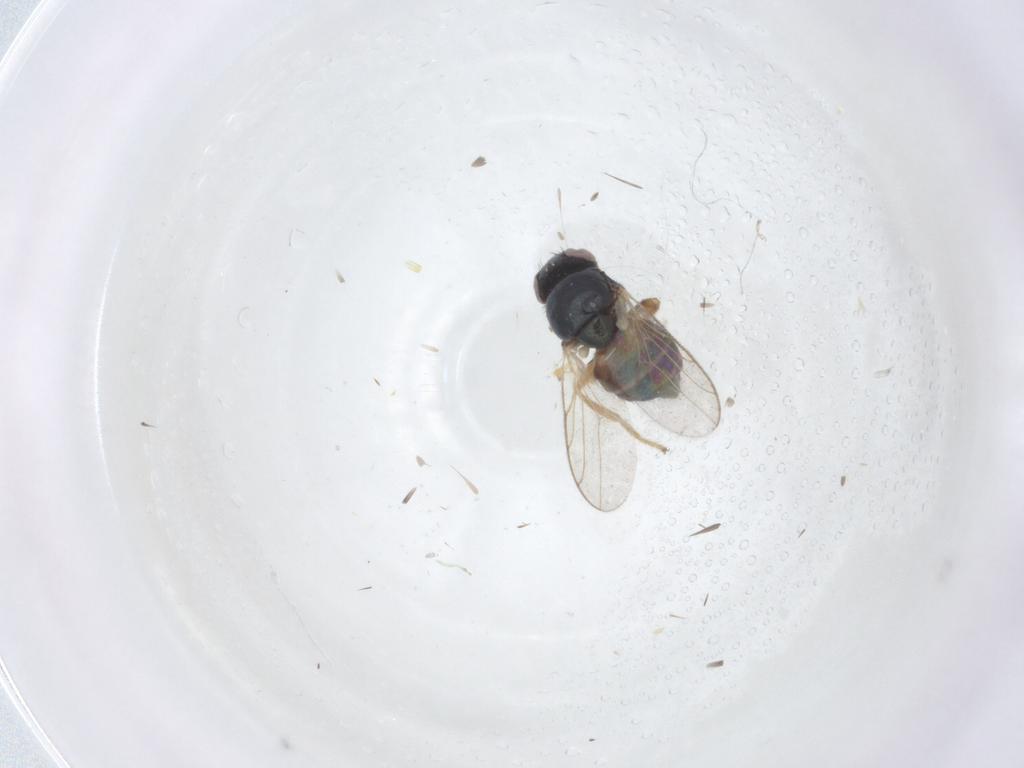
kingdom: Animalia
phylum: Arthropoda
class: Insecta
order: Diptera
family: Chloropidae
